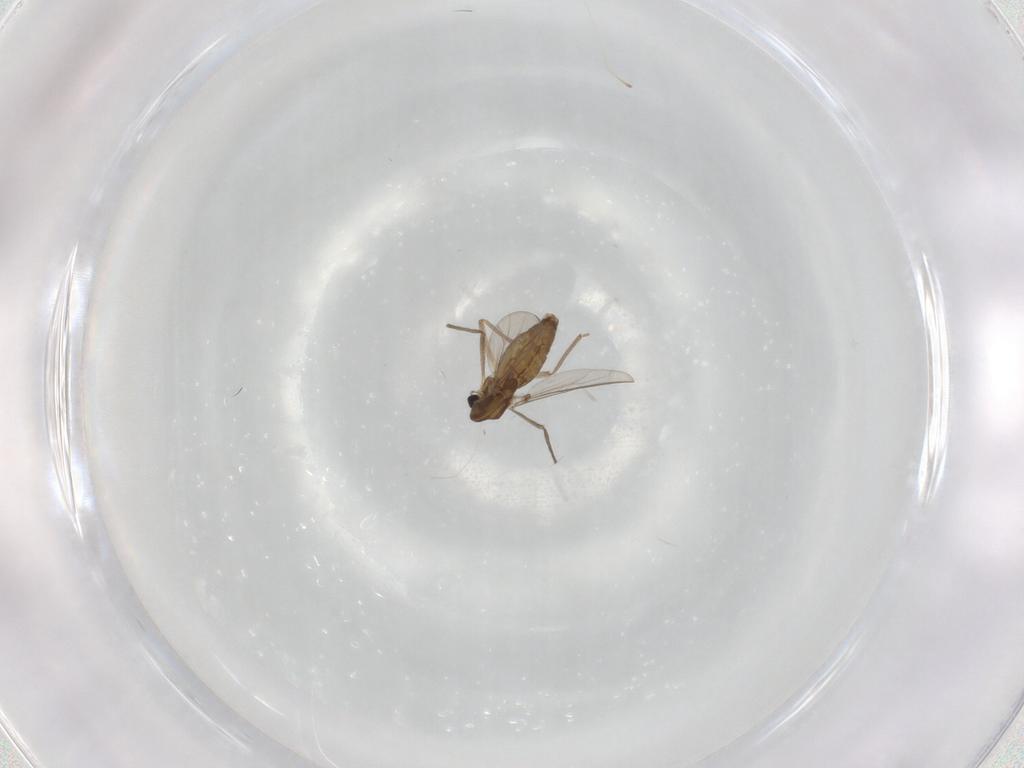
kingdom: Animalia
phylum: Arthropoda
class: Insecta
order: Diptera
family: Chironomidae
